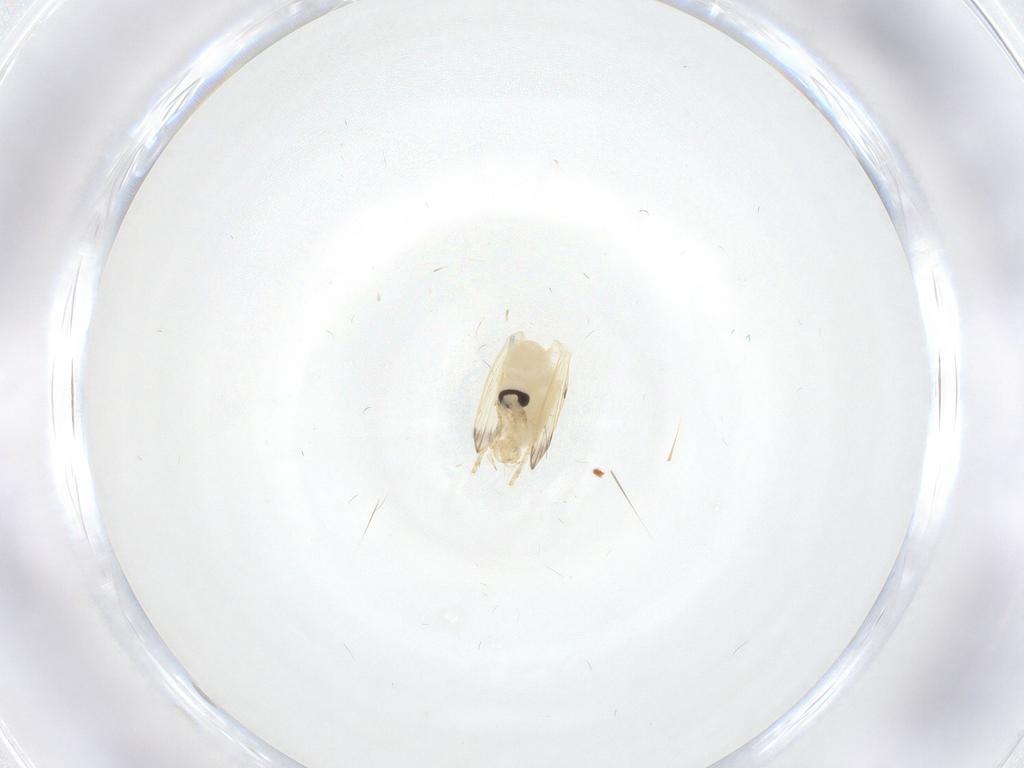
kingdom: Animalia
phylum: Arthropoda
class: Insecta
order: Diptera
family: Psychodidae
